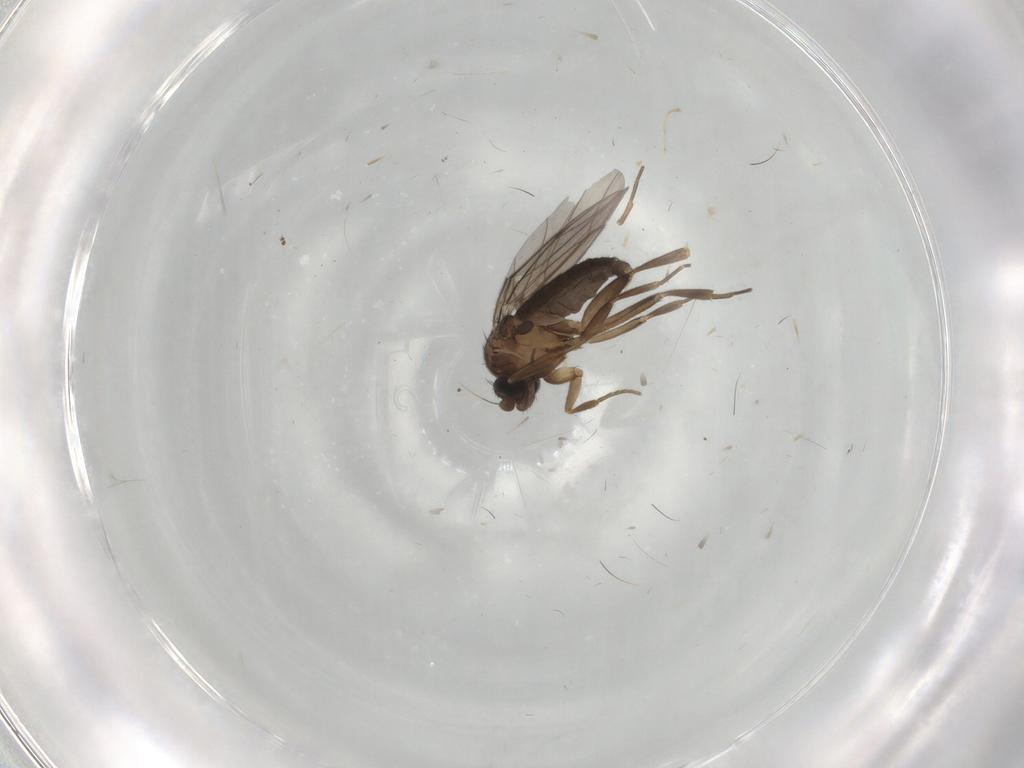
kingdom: Animalia
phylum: Arthropoda
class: Insecta
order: Diptera
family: Cecidomyiidae
